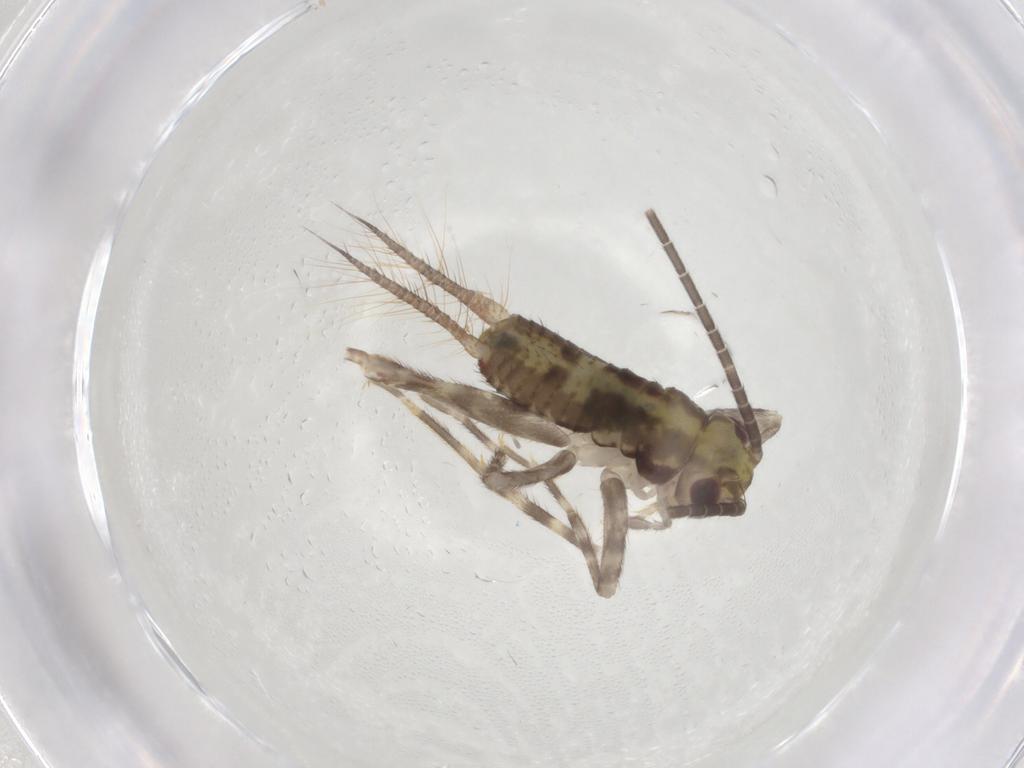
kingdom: Animalia
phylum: Arthropoda
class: Insecta
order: Orthoptera
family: Gryllidae
